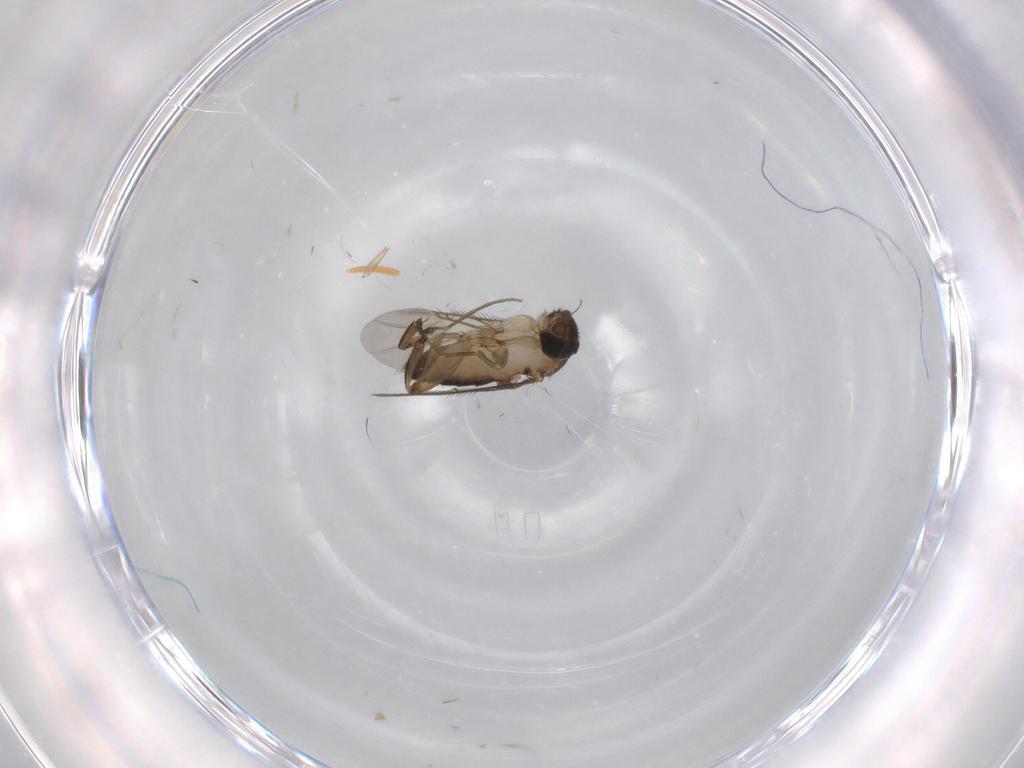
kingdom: Animalia
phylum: Arthropoda
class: Insecta
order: Diptera
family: Phoridae
